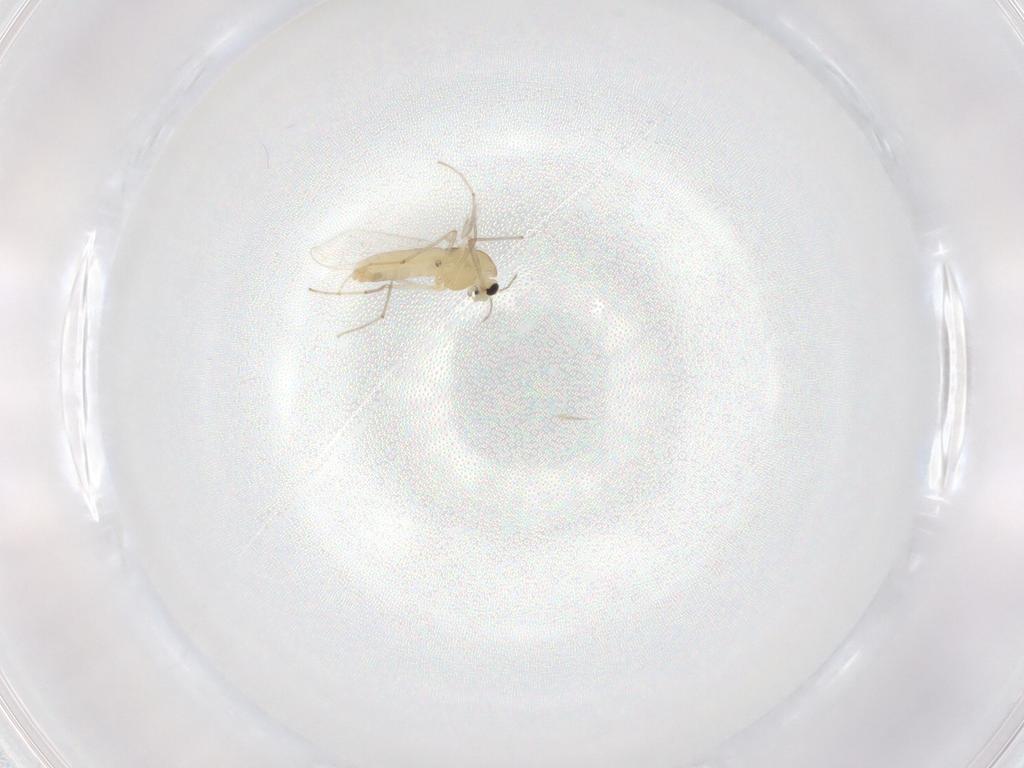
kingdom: Animalia
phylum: Arthropoda
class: Insecta
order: Diptera
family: Chironomidae
